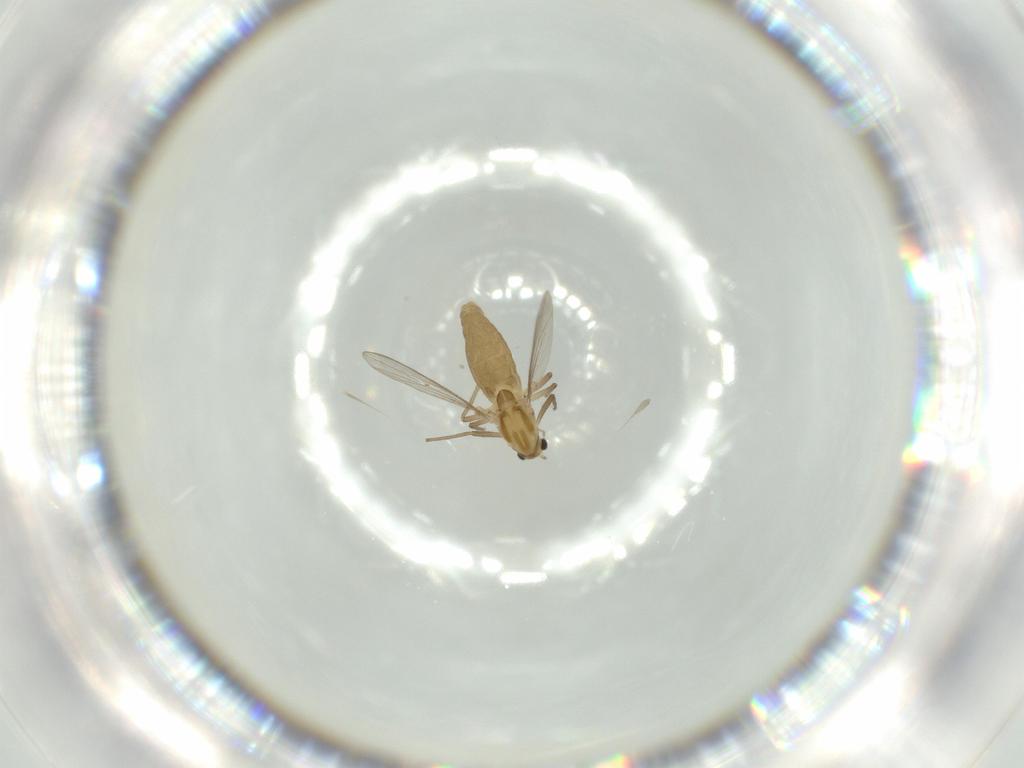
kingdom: Animalia
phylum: Arthropoda
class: Insecta
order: Diptera
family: Chironomidae
